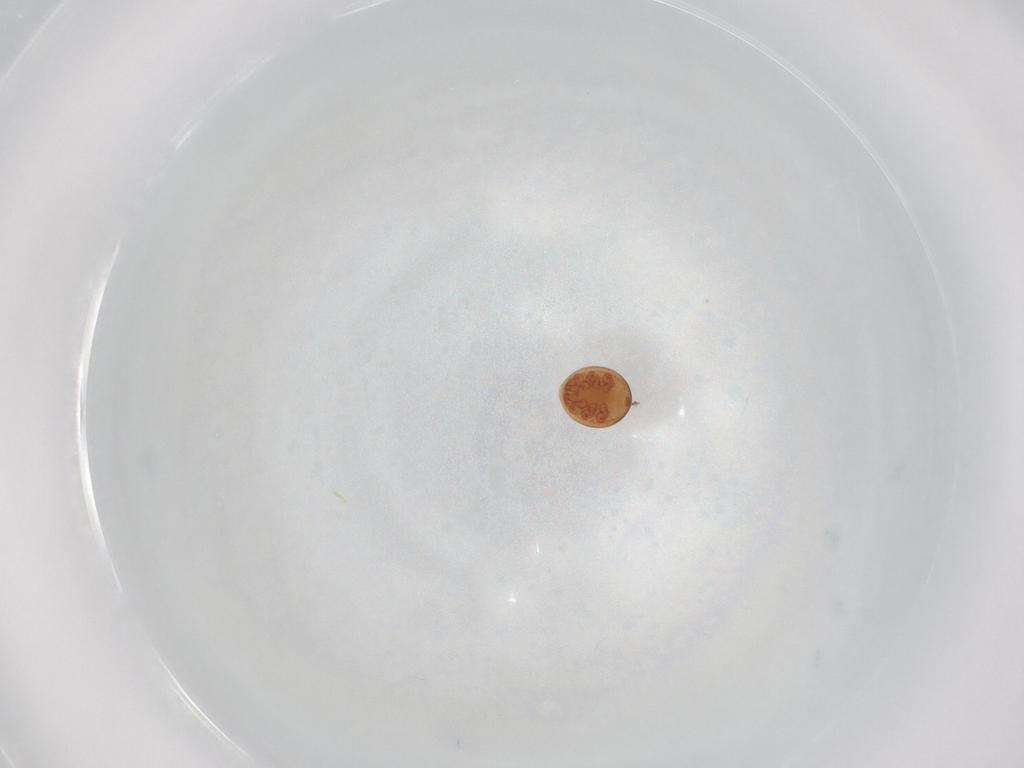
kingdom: Animalia
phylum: Arthropoda
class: Arachnida
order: Mesostigmata
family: Uropodidae
